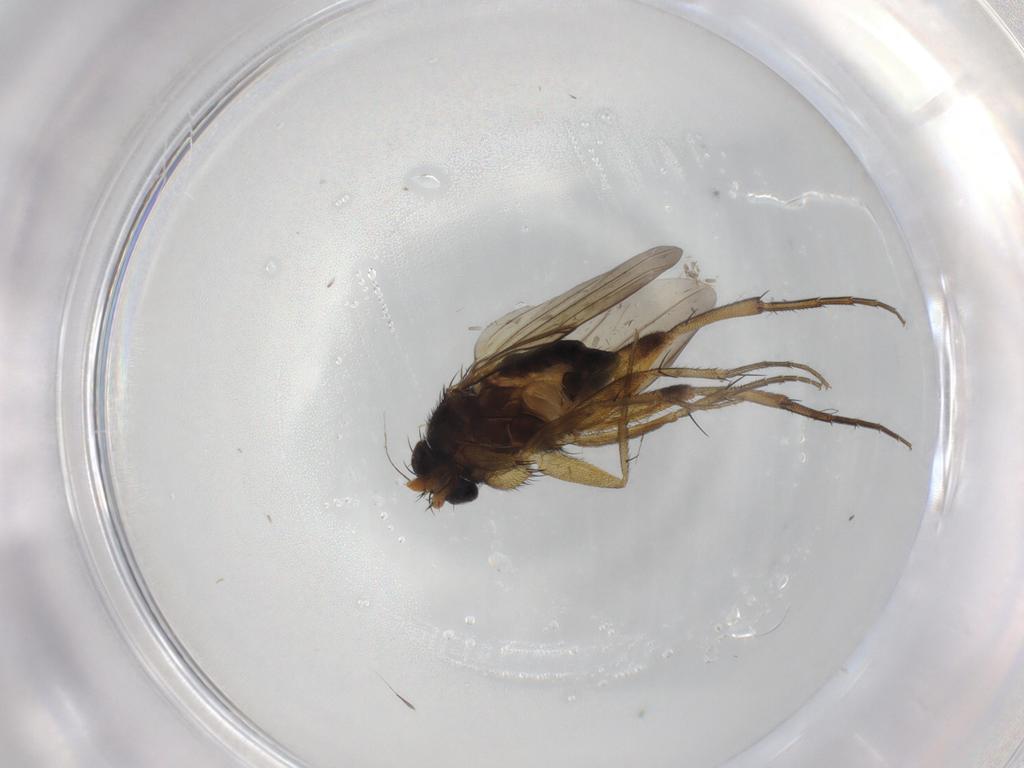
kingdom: Animalia
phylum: Arthropoda
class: Insecta
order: Diptera
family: Phoridae
